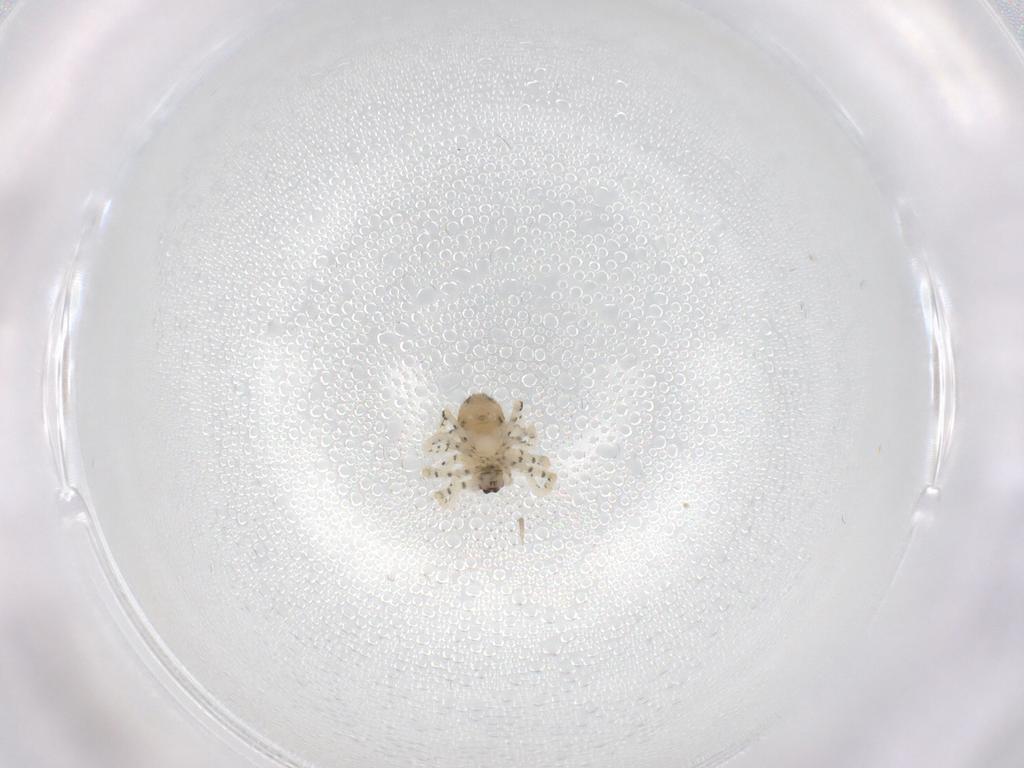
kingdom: Animalia
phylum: Arthropoda
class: Arachnida
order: Araneae
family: Theridiidae
